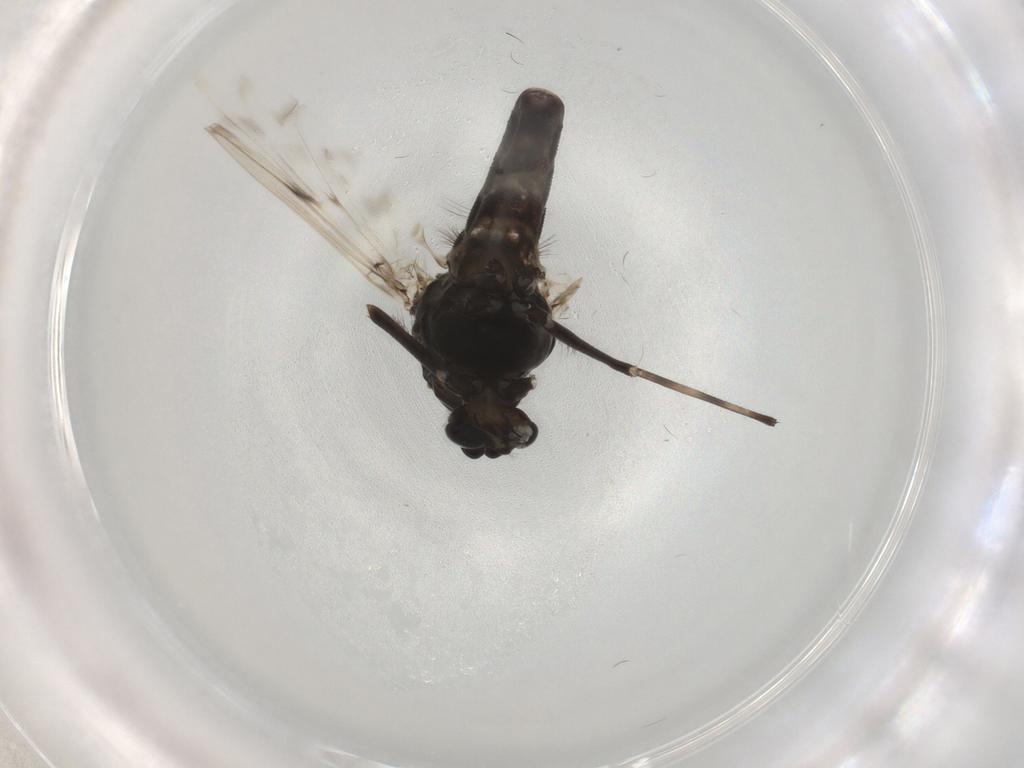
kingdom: Animalia
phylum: Arthropoda
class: Insecta
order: Diptera
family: Chironomidae
